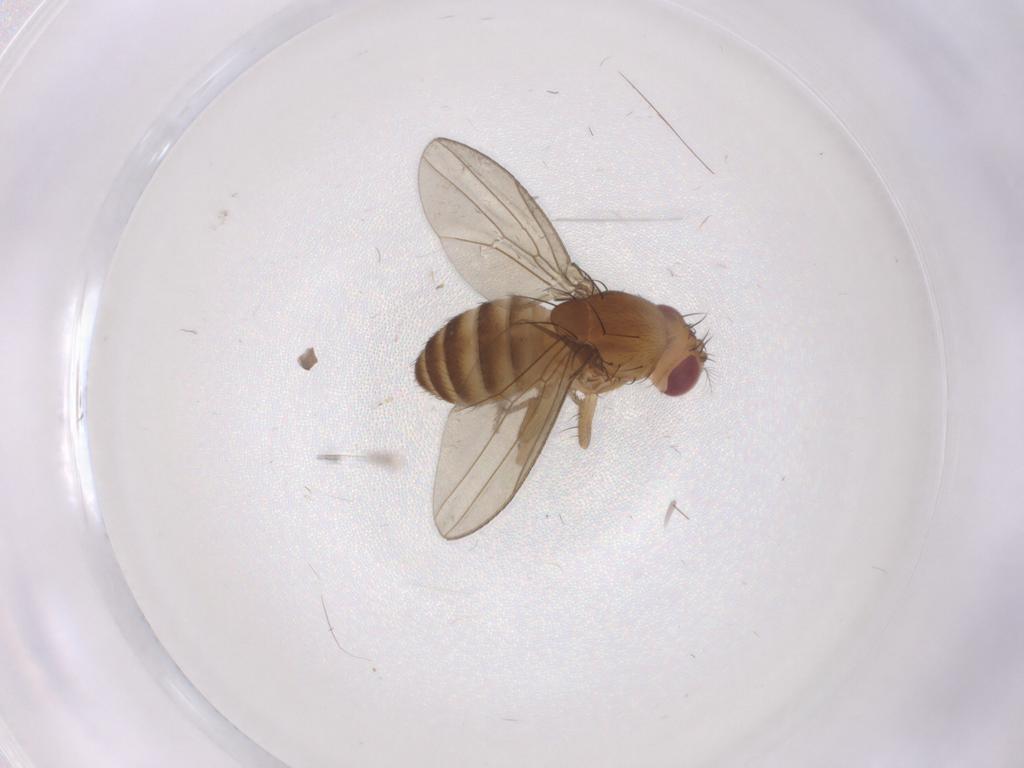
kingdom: Animalia
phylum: Arthropoda
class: Insecta
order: Diptera
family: Drosophilidae
